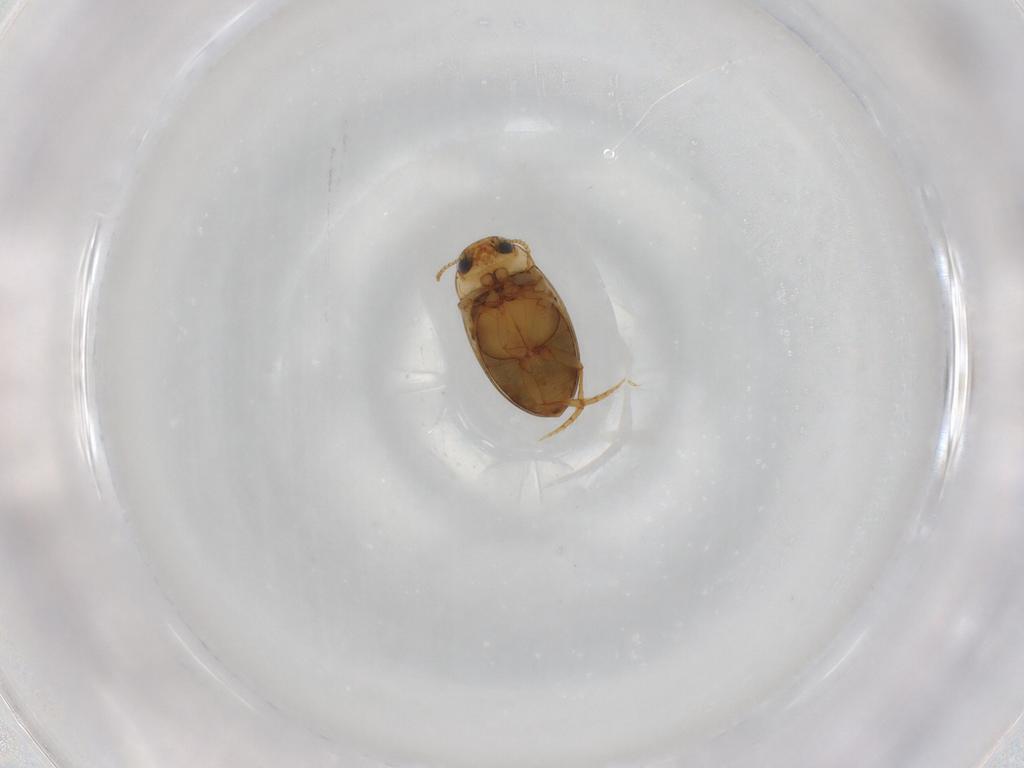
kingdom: Animalia
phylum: Arthropoda
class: Insecta
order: Coleoptera
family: Dytiscidae
